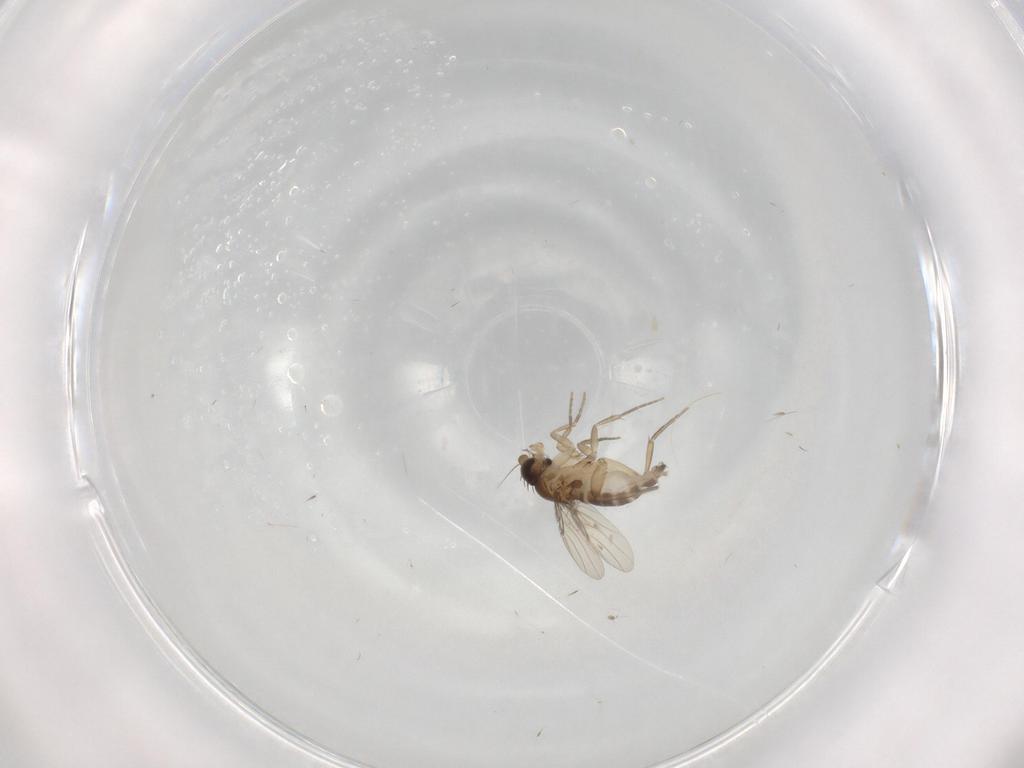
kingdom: Animalia
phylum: Arthropoda
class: Insecta
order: Diptera
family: Phoridae
